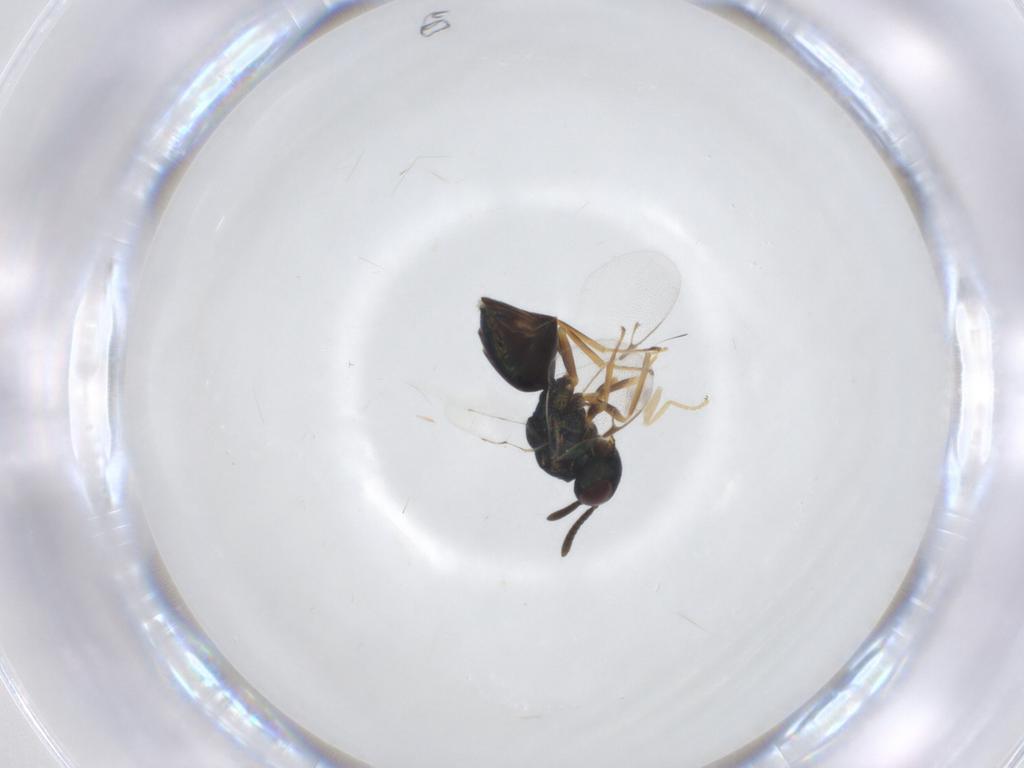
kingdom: Animalia
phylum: Arthropoda
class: Insecta
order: Hymenoptera
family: Pteromalidae
